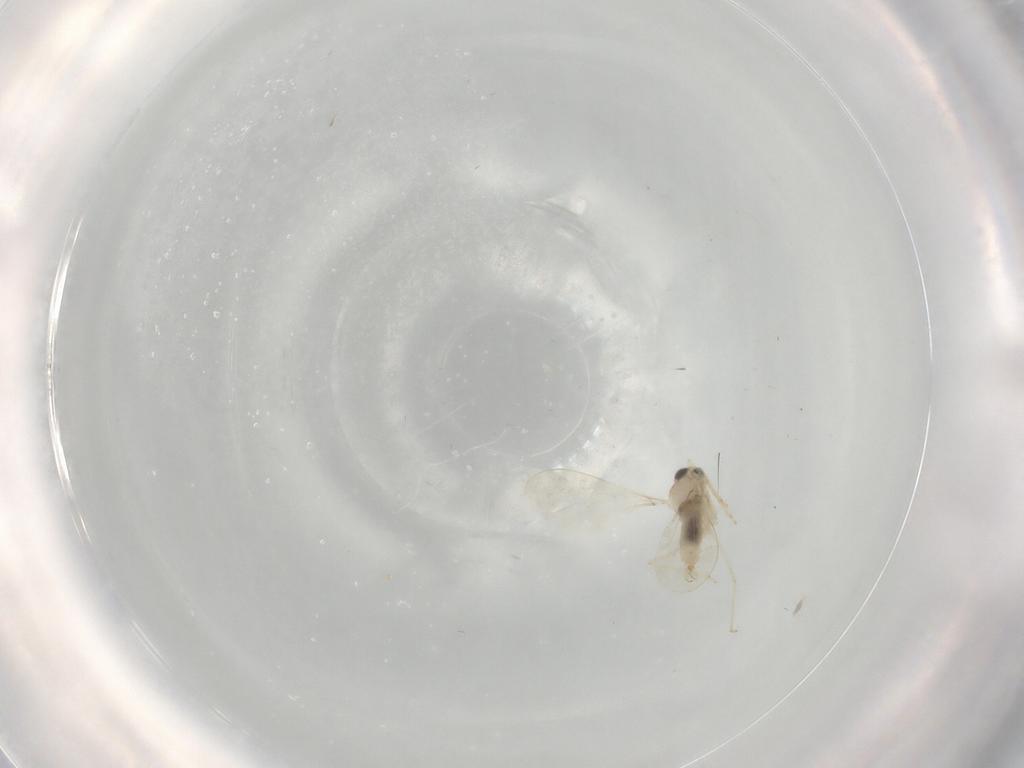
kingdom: Animalia
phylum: Arthropoda
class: Insecta
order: Diptera
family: Cecidomyiidae
